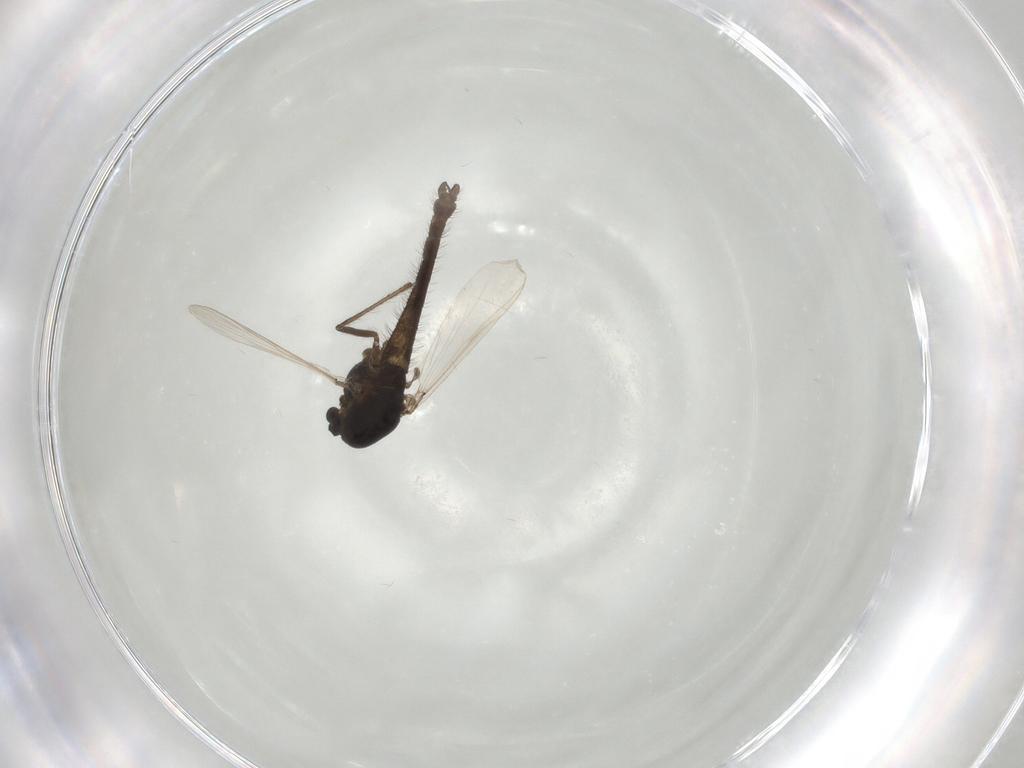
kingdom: Animalia
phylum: Arthropoda
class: Insecta
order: Diptera
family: Chironomidae
